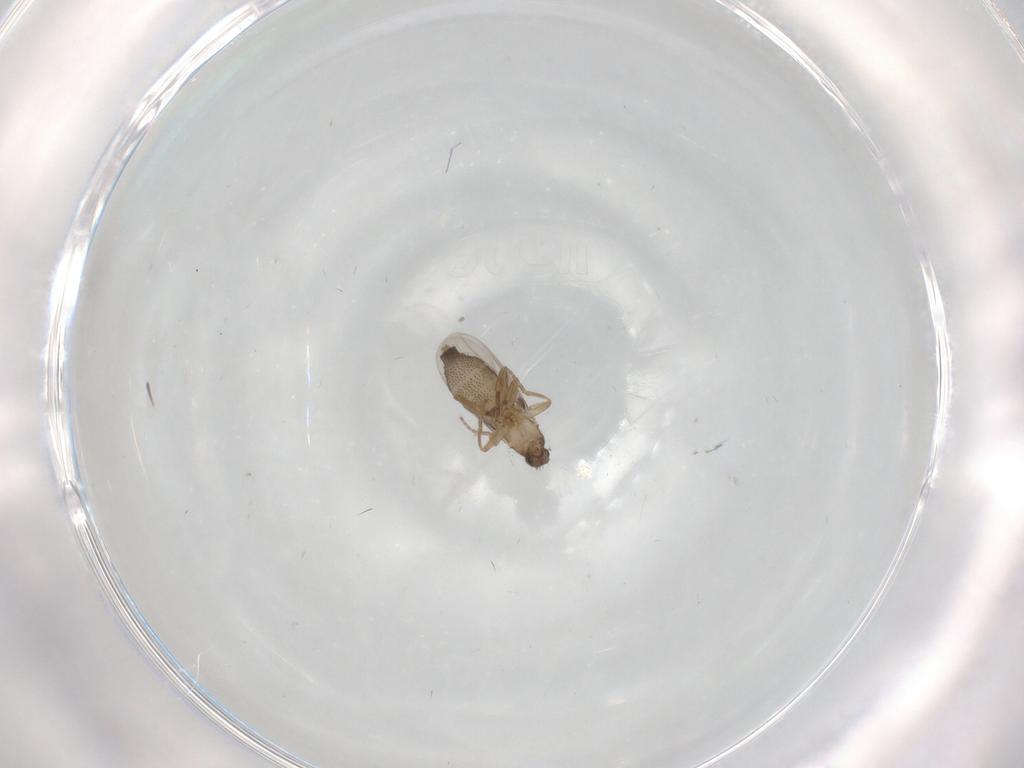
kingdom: Animalia
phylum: Arthropoda
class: Insecta
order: Diptera
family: Phoridae
